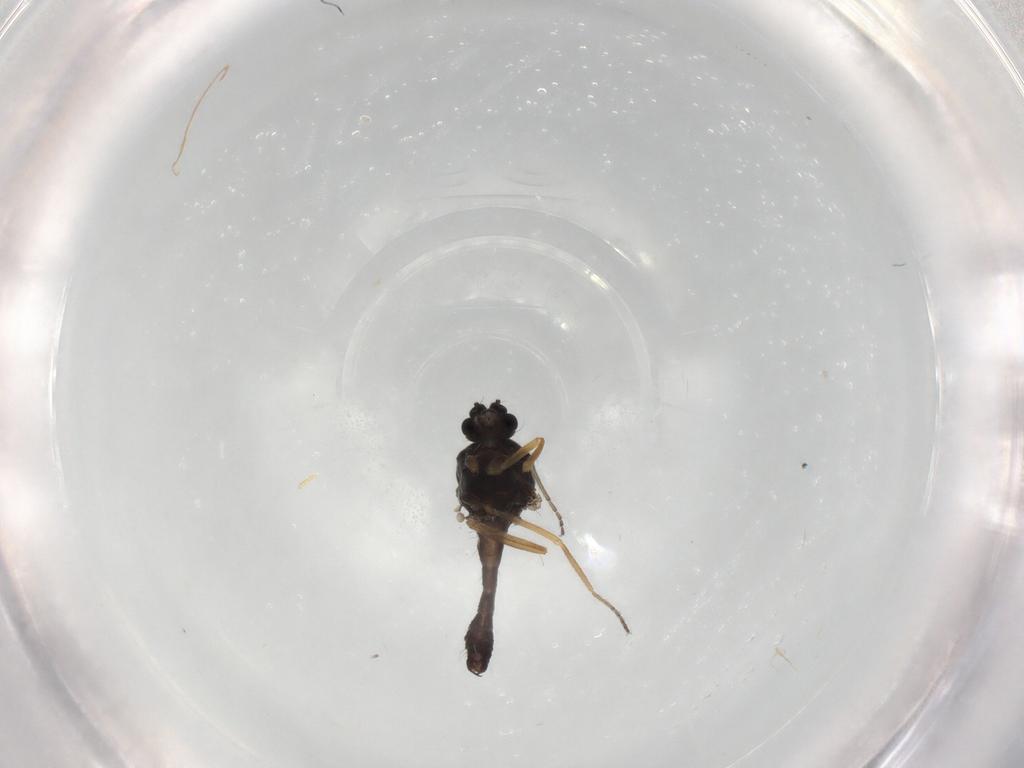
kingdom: Animalia
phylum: Arthropoda
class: Insecta
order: Diptera
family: Ceratopogonidae
